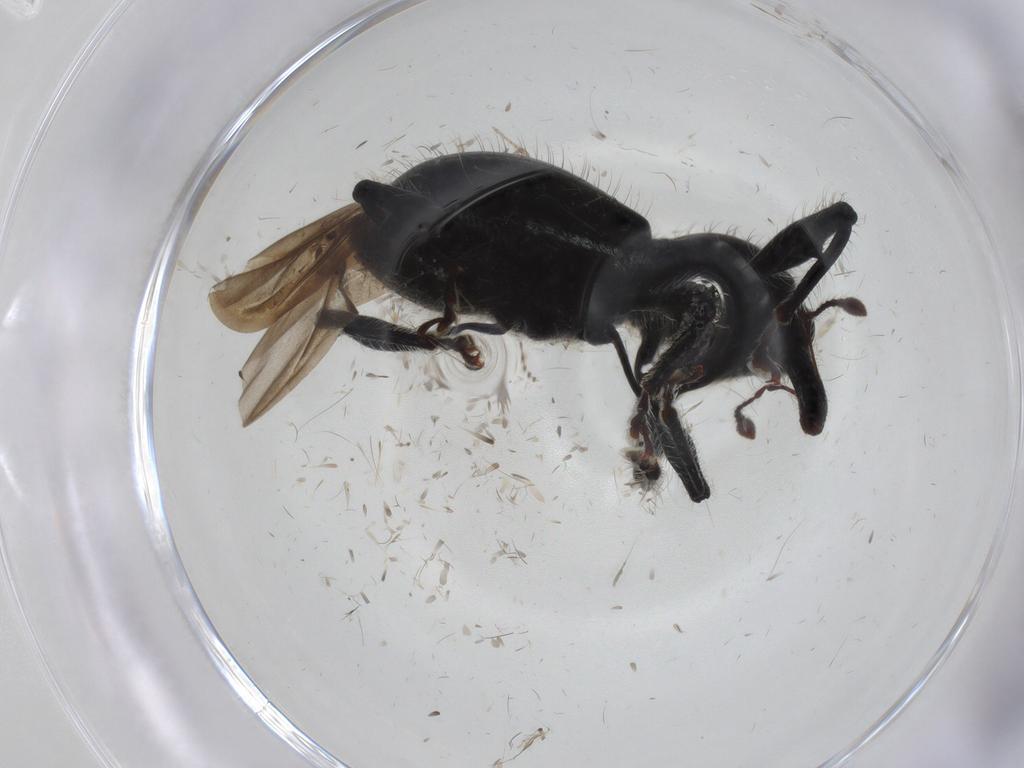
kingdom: Animalia
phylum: Arthropoda
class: Insecta
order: Coleoptera
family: Curculionidae
